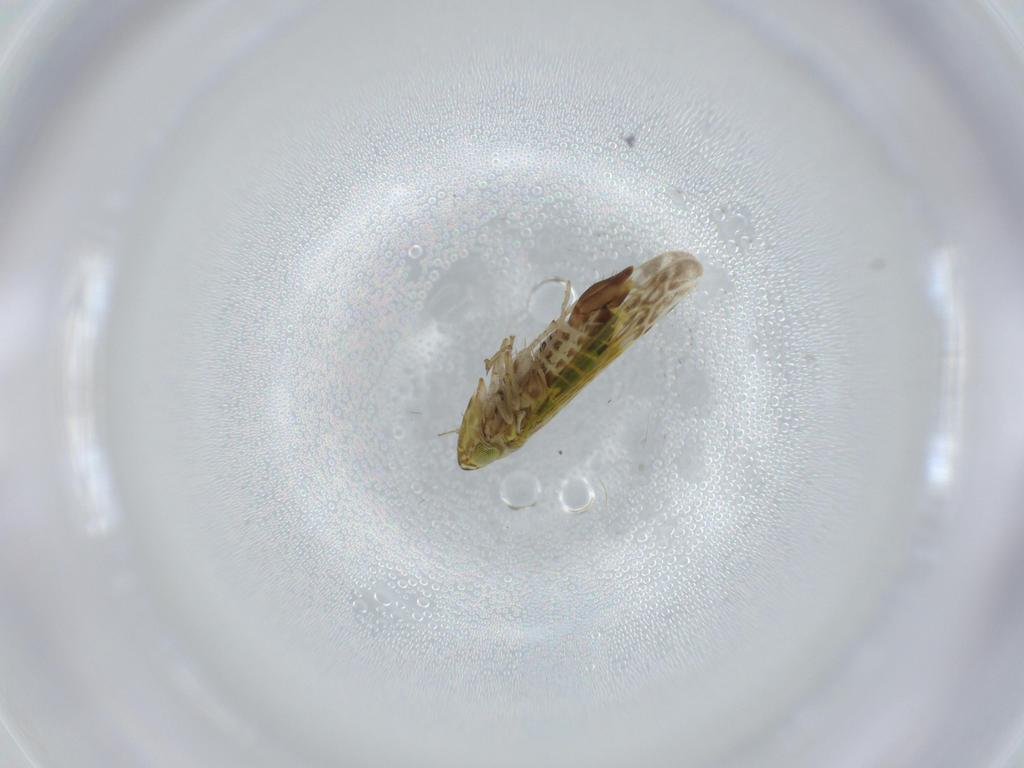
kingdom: Animalia
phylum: Arthropoda
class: Insecta
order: Hemiptera
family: Cicadellidae
